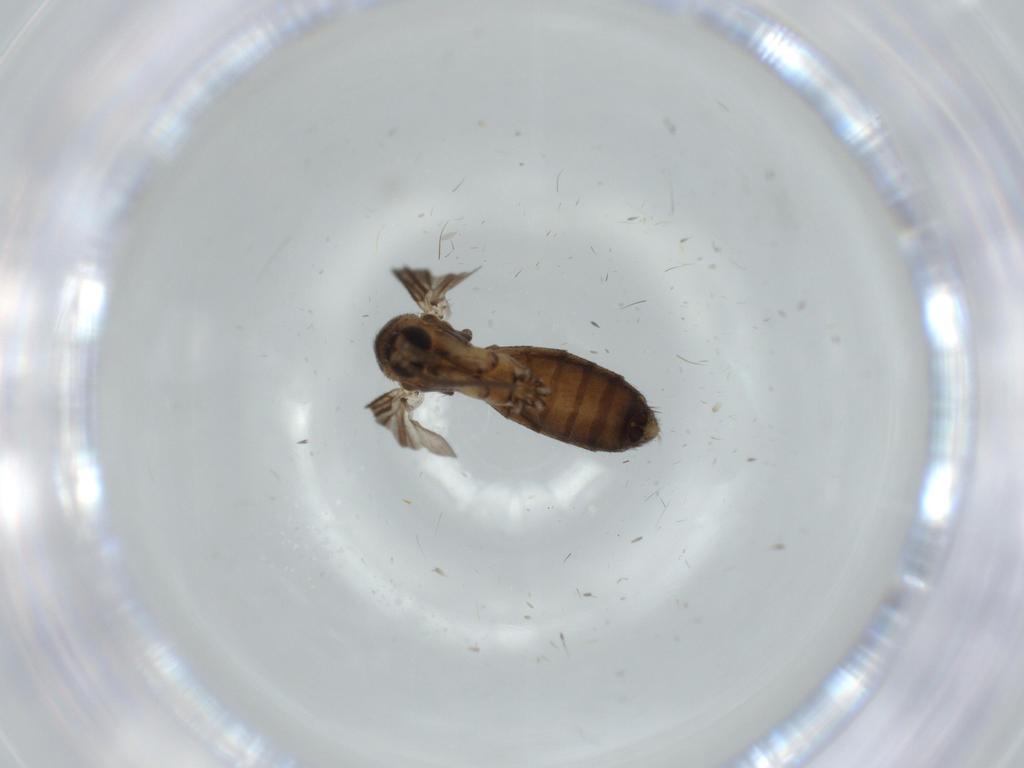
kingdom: Animalia
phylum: Arthropoda
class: Insecta
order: Diptera
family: Mycetophilidae
